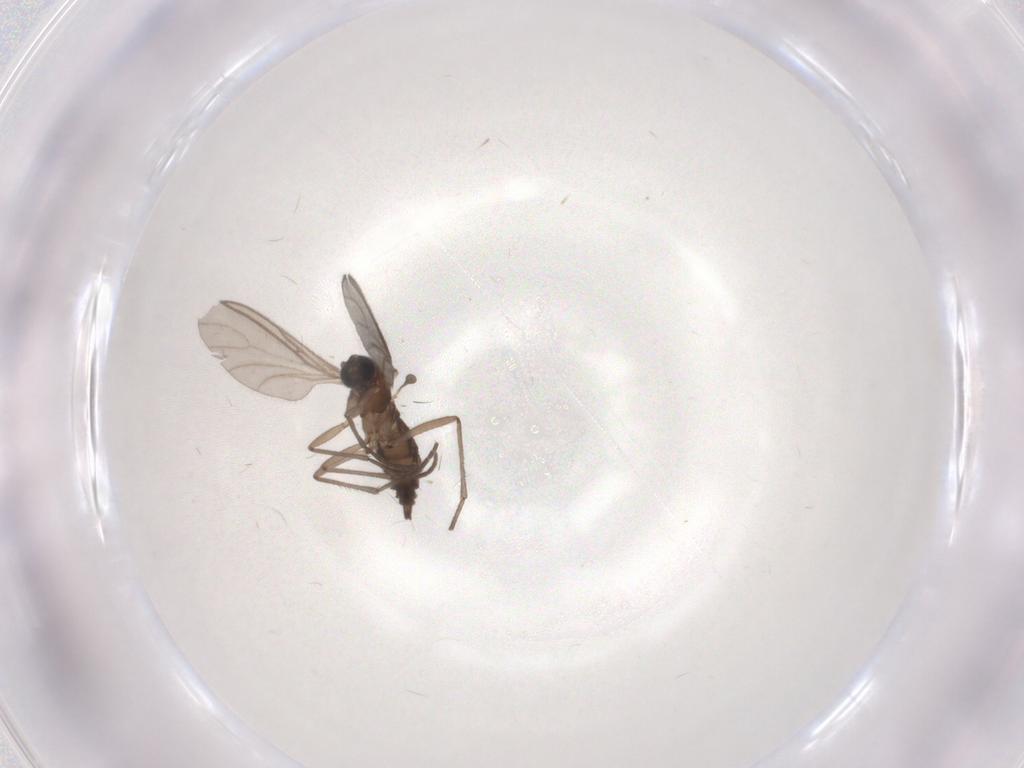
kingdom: Animalia
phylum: Arthropoda
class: Insecta
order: Diptera
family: Sciaridae
